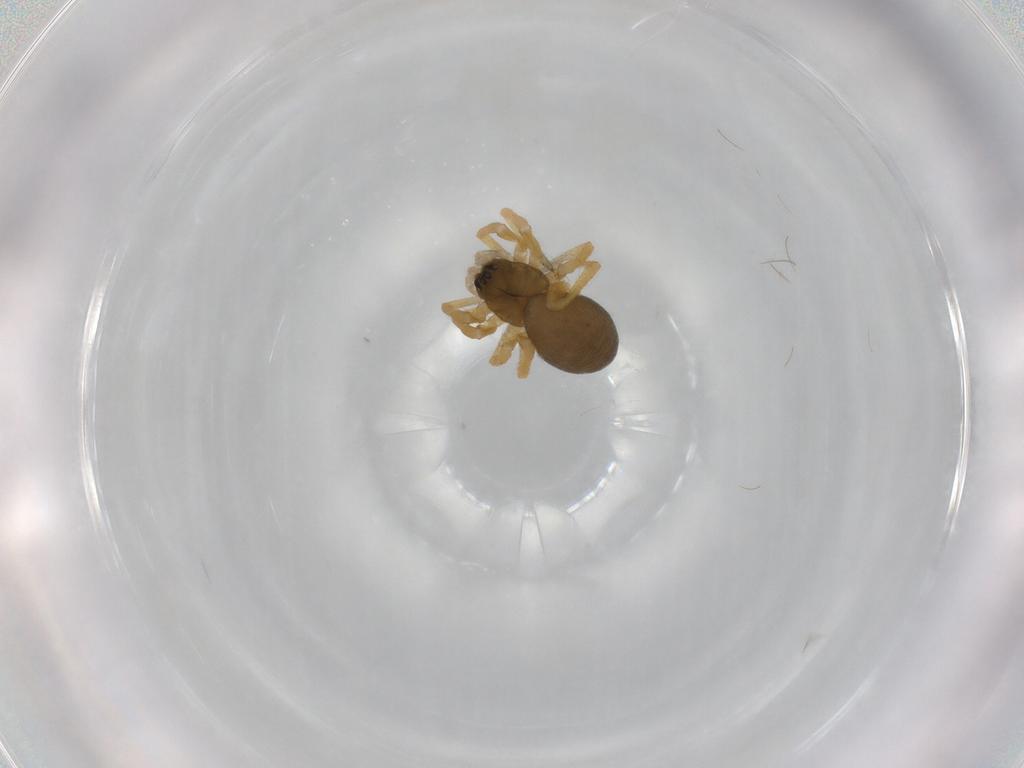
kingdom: Animalia
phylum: Arthropoda
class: Arachnida
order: Araneae
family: Linyphiidae
